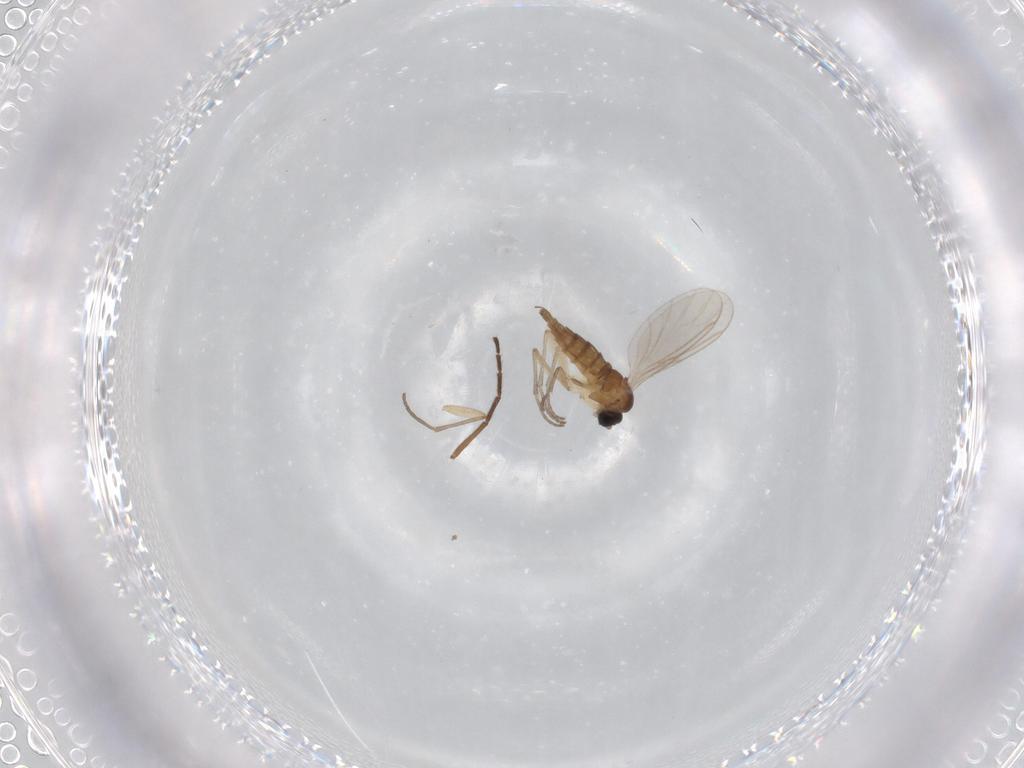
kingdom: Animalia
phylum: Arthropoda
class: Insecta
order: Diptera
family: Sciaridae
